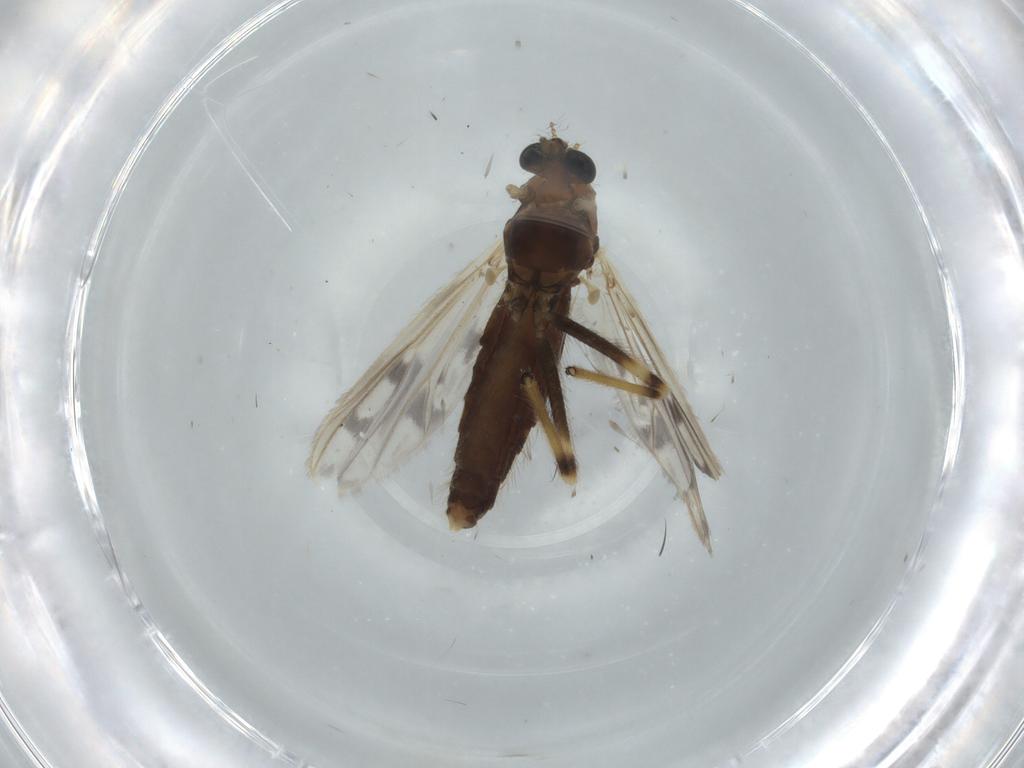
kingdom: Animalia
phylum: Arthropoda
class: Insecta
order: Diptera
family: Chironomidae
